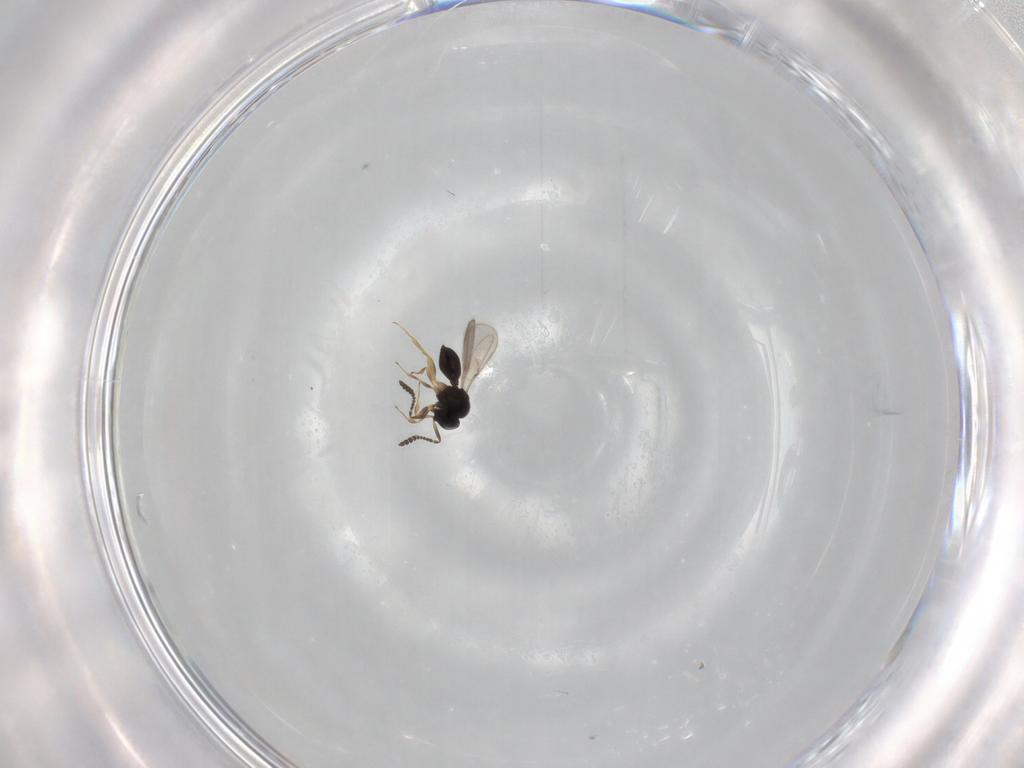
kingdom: Animalia
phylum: Arthropoda
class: Insecta
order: Hymenoptera
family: Scelionidae
